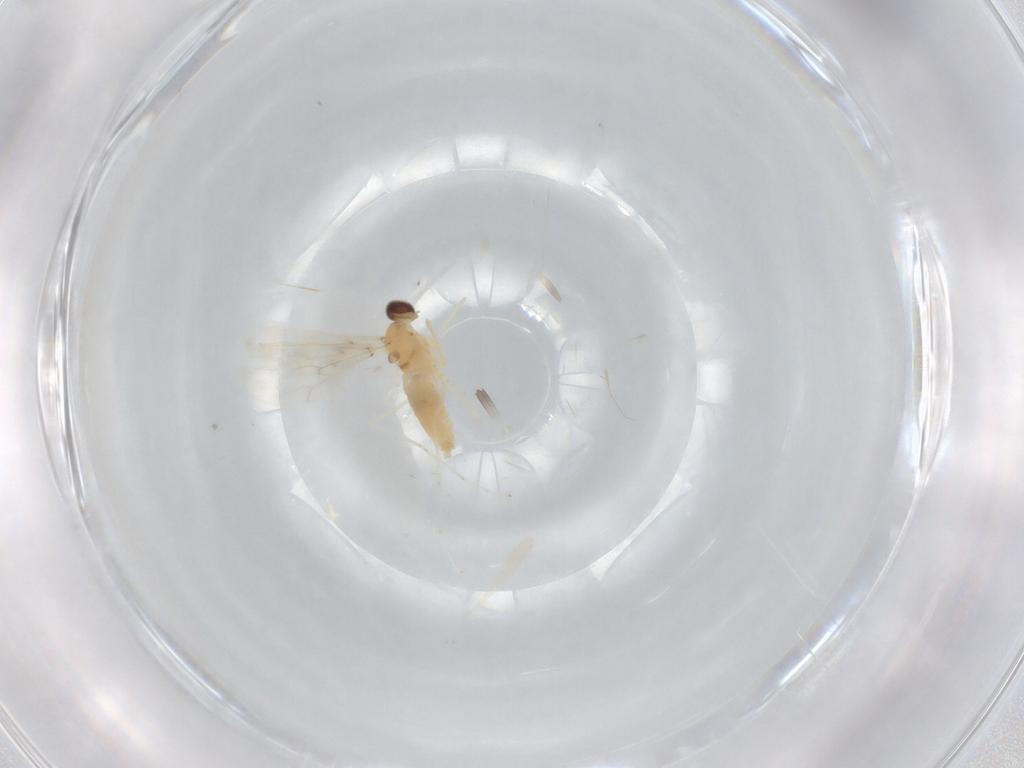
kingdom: Animalia
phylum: Arthropoda
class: Insecta
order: Diptera
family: Cecidomyiidae
